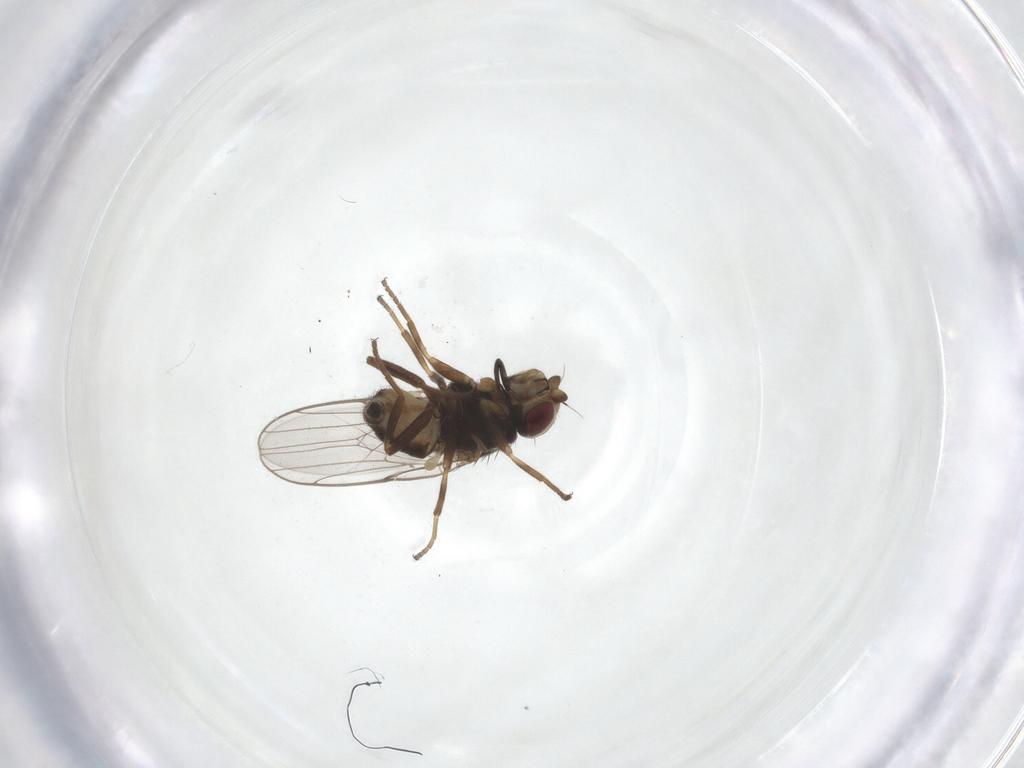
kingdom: Animalia
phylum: Arthropoda
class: Insecta
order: Diptera
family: Chloropidae
